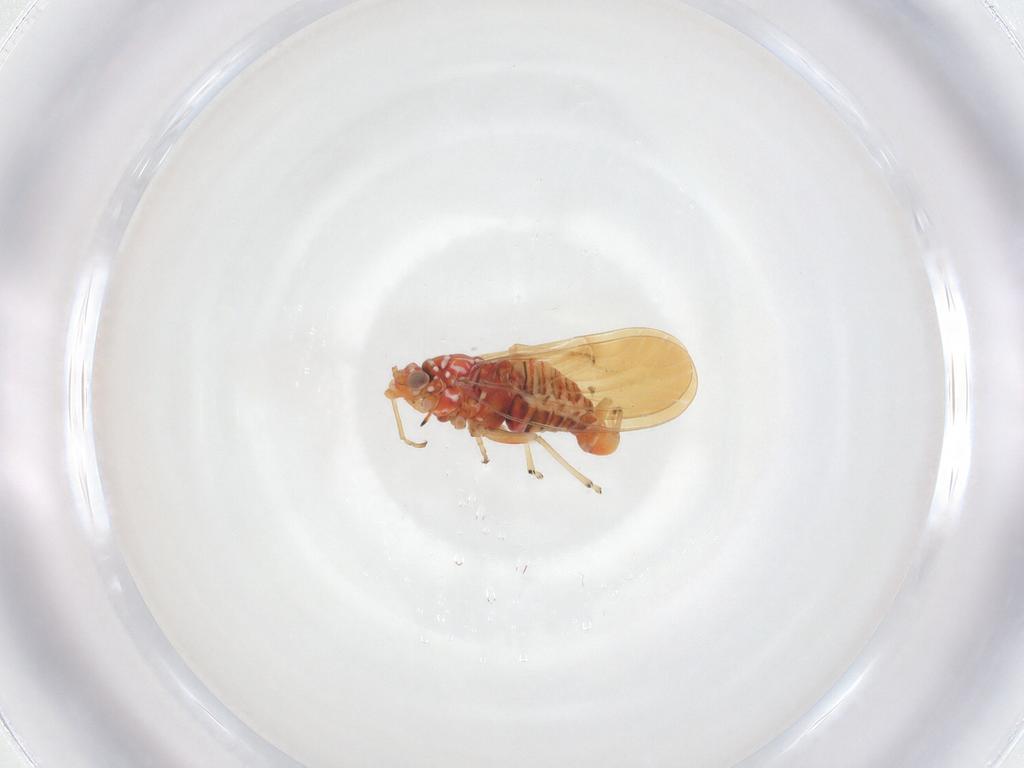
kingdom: Animalia
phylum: Arthropoda
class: Insecta
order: Hemiptera
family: Psyllidae
